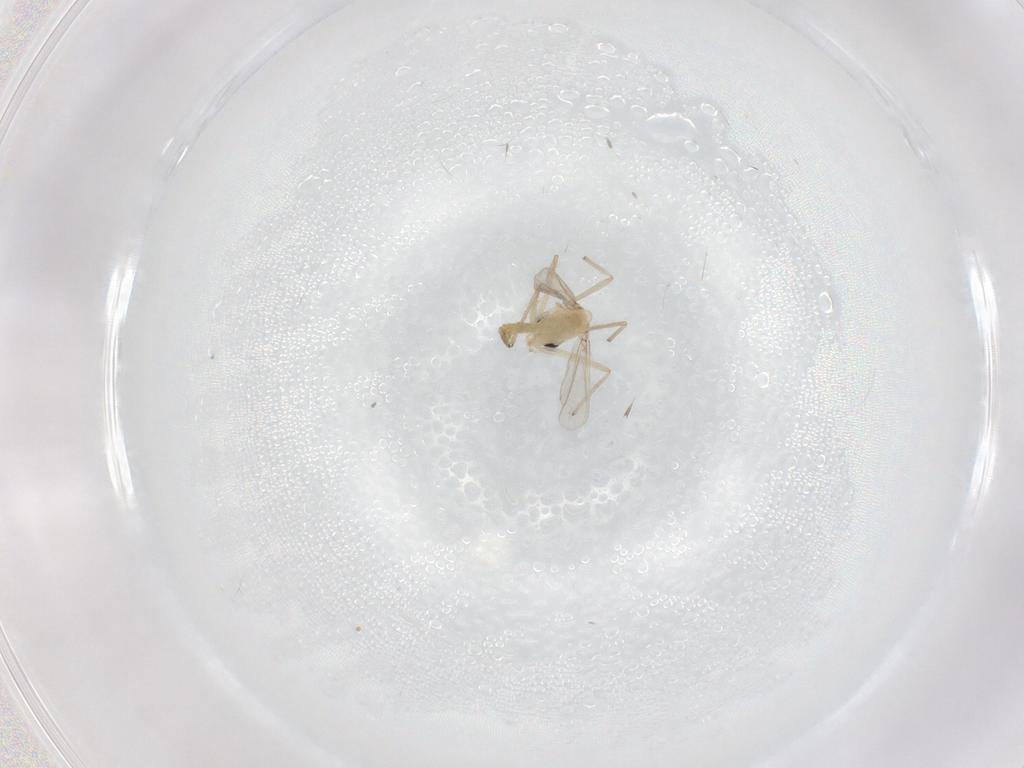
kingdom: Animalia
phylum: Arthropoda
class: Insecta
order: Diptera
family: Chironomidae
